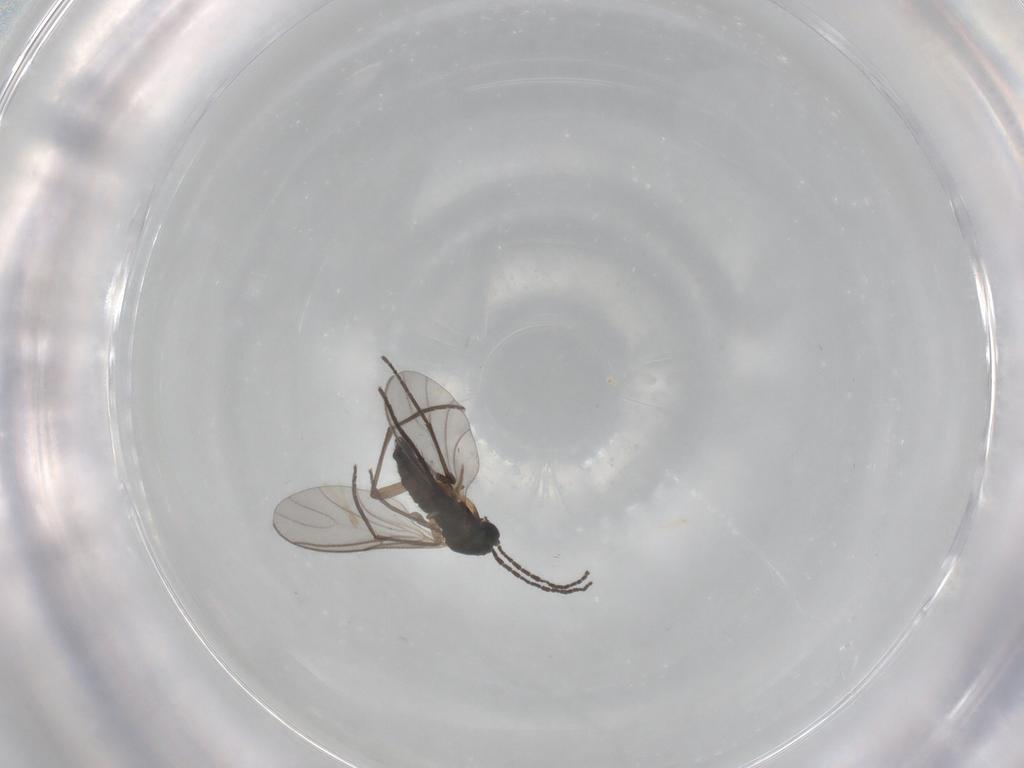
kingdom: Animalia
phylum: Arthropoda
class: Insecta
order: Diptera
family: Sciaridae
